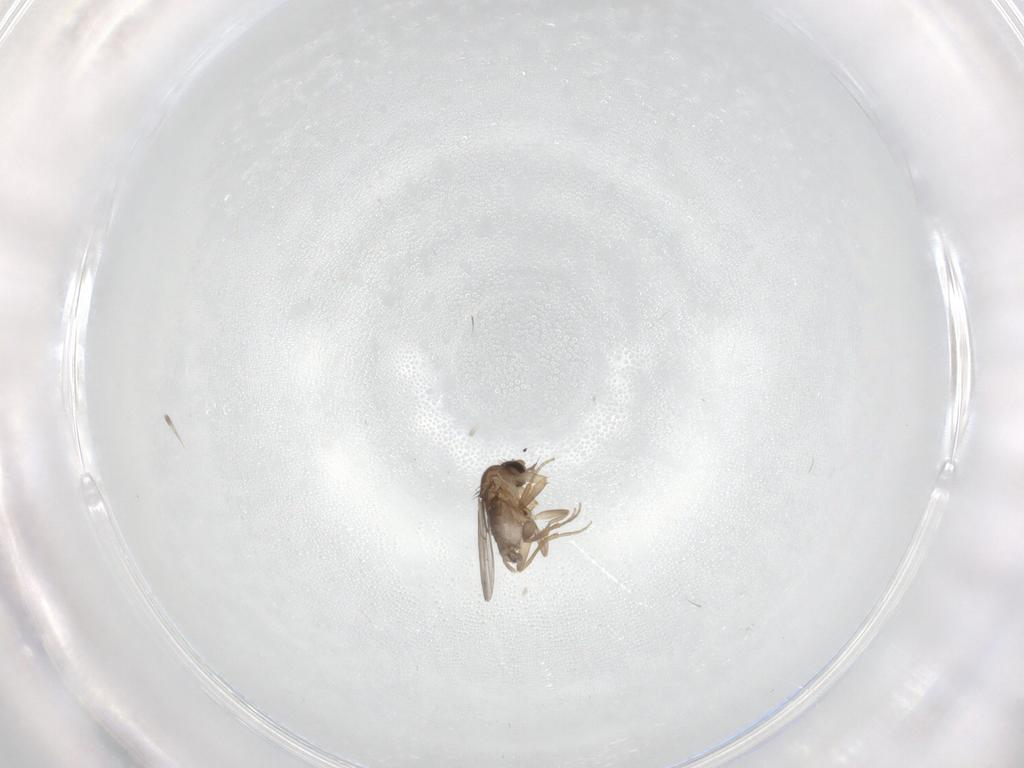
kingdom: Animalia
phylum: Arthropoda
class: Insecta
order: Diptera
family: Phoridae
